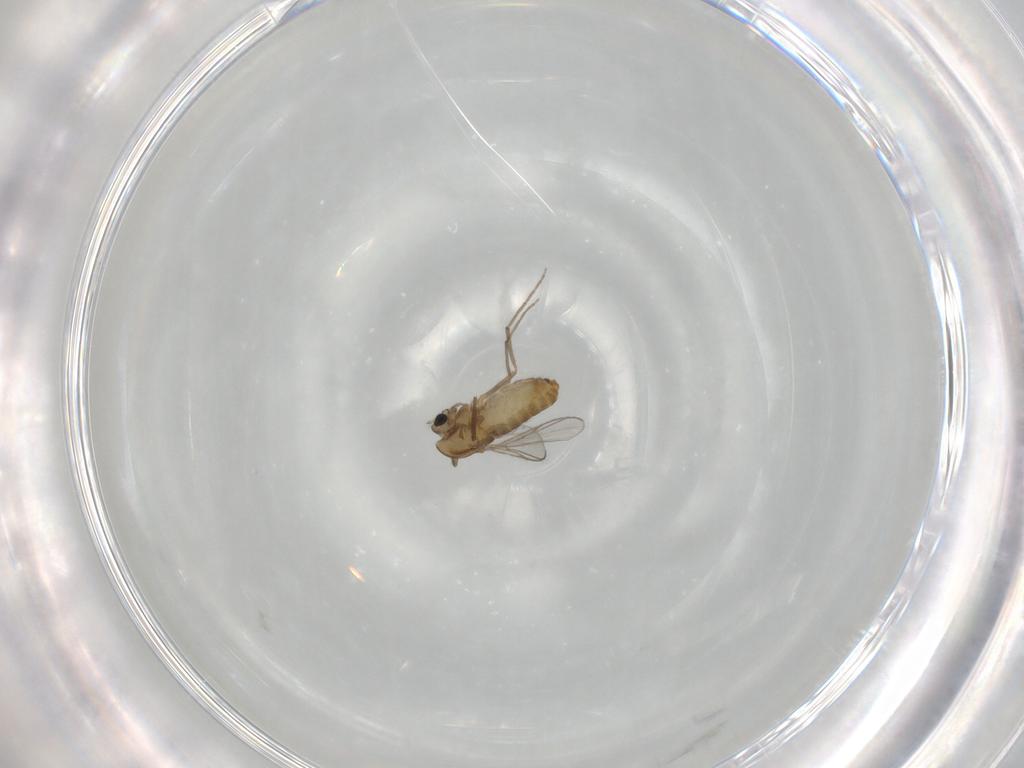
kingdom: Animalia
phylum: Arthropoda
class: Insecta
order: Diptera
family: Chironomidae
